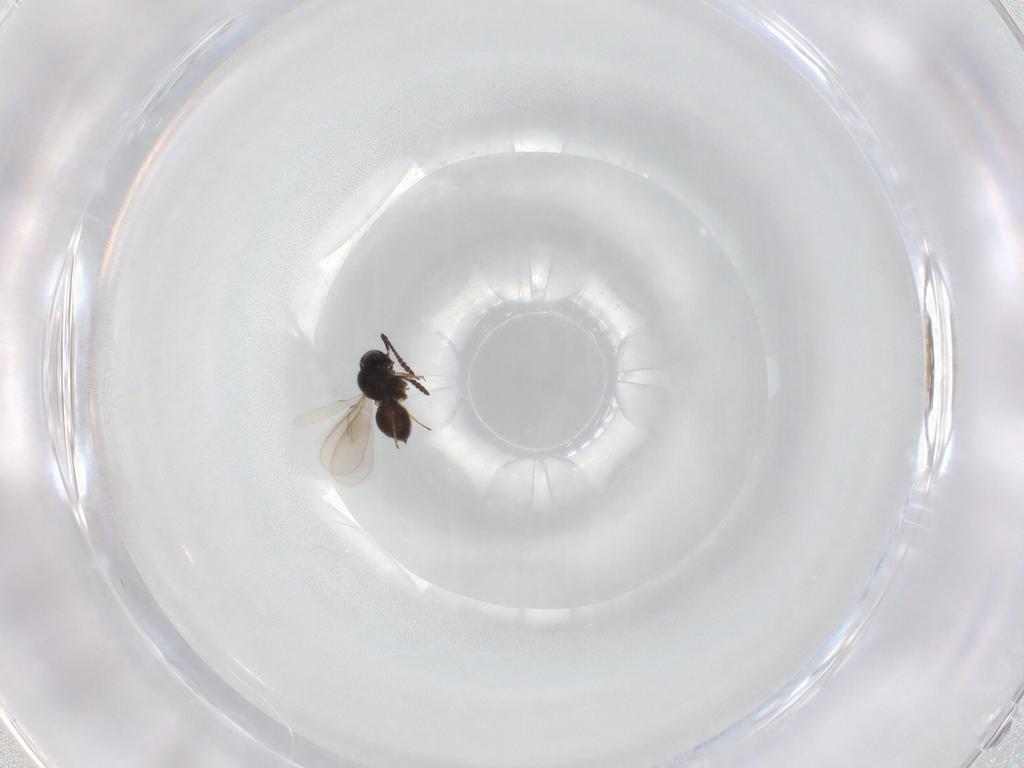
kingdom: Animalia
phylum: Arthropoda
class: Insecta
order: Hymenoptera
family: Scelionidae
